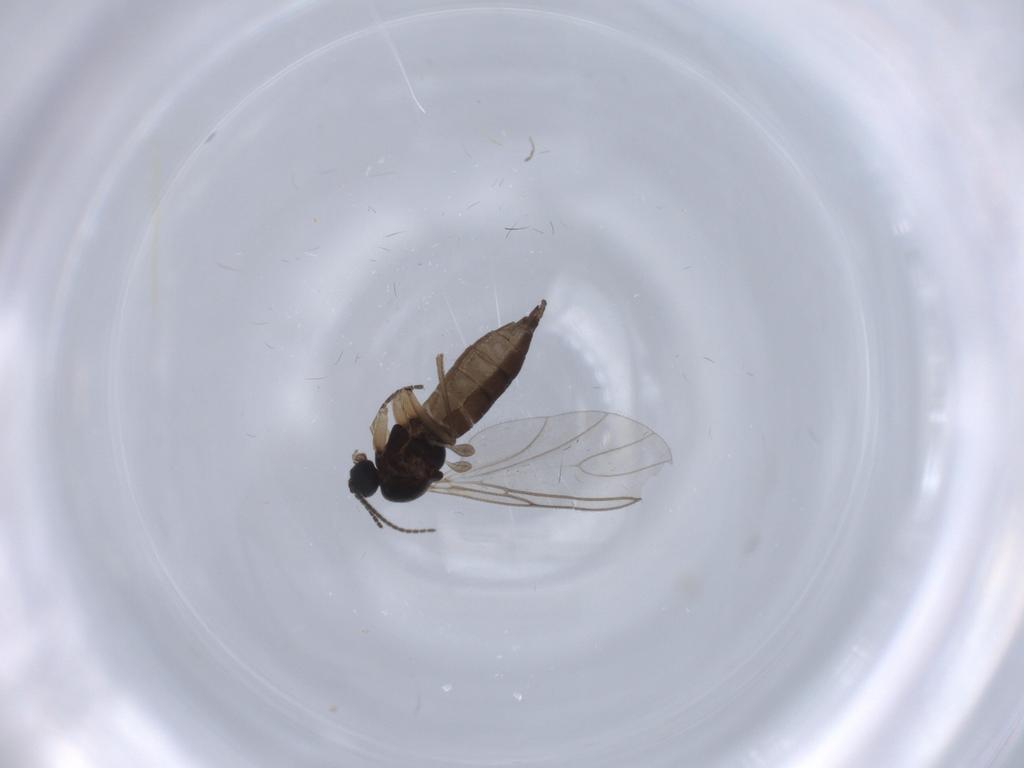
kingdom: Animalia
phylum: Arthropoda
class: Insecta
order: Diptera
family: Sciaridae
